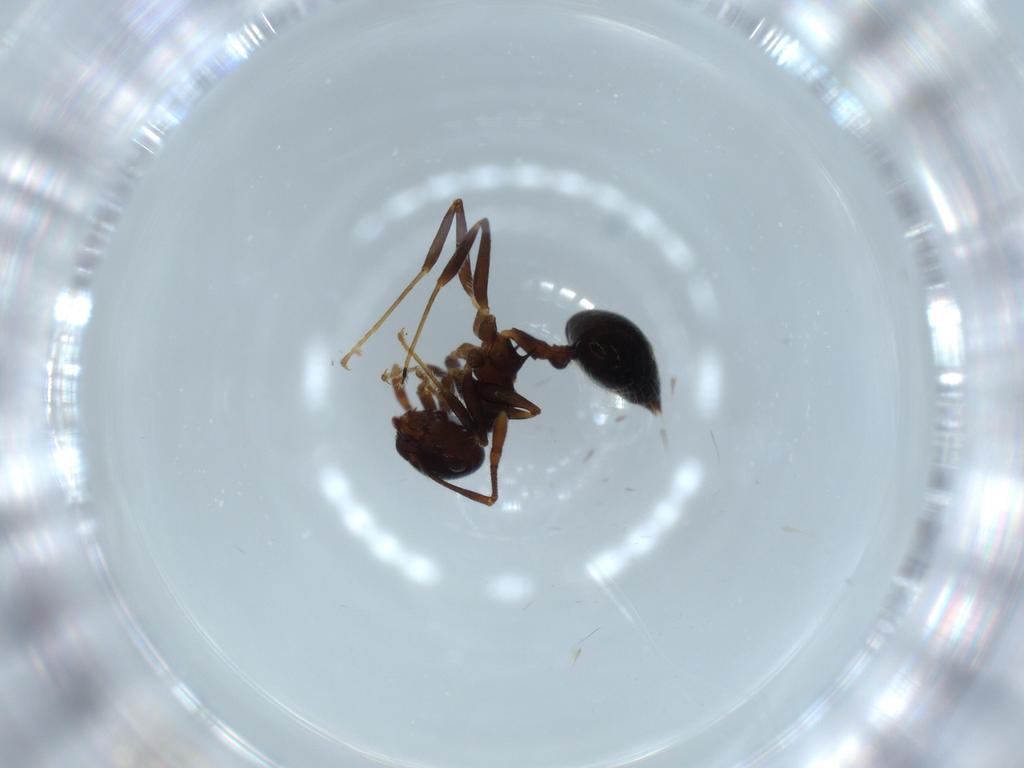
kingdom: Animalia
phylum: Arthropoda
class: Insecta
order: Hymenoptera
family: Formicidae
